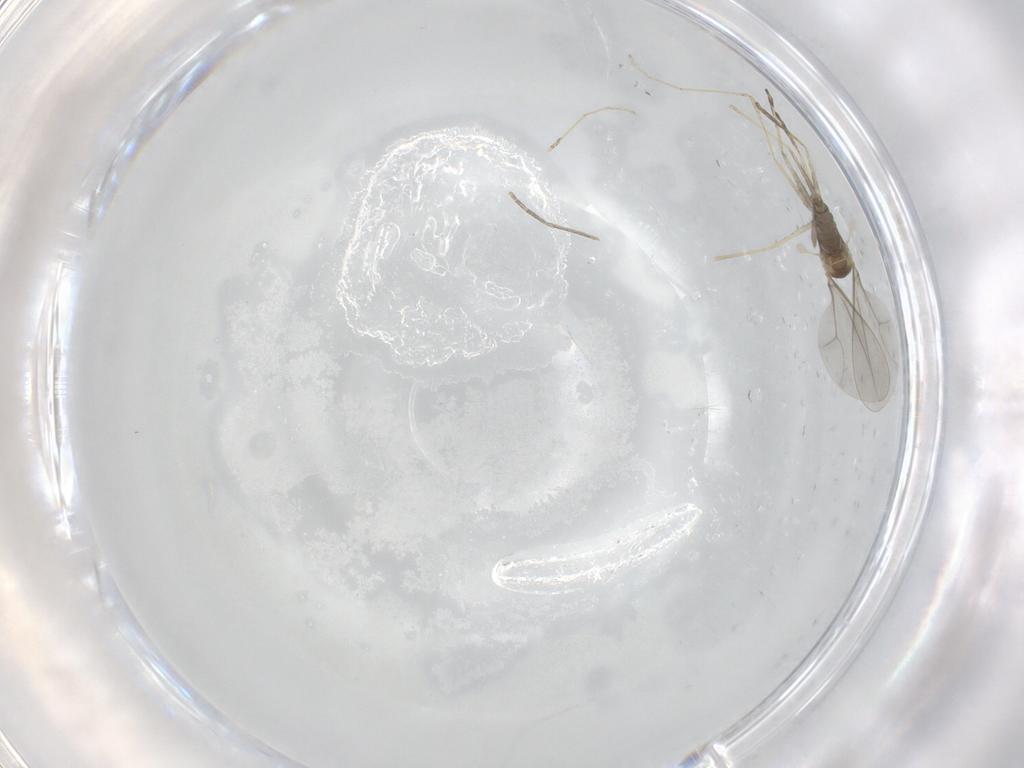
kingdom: Animalia
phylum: Arthropoda
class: Insecta
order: Diptera
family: Cecidomyiidae
